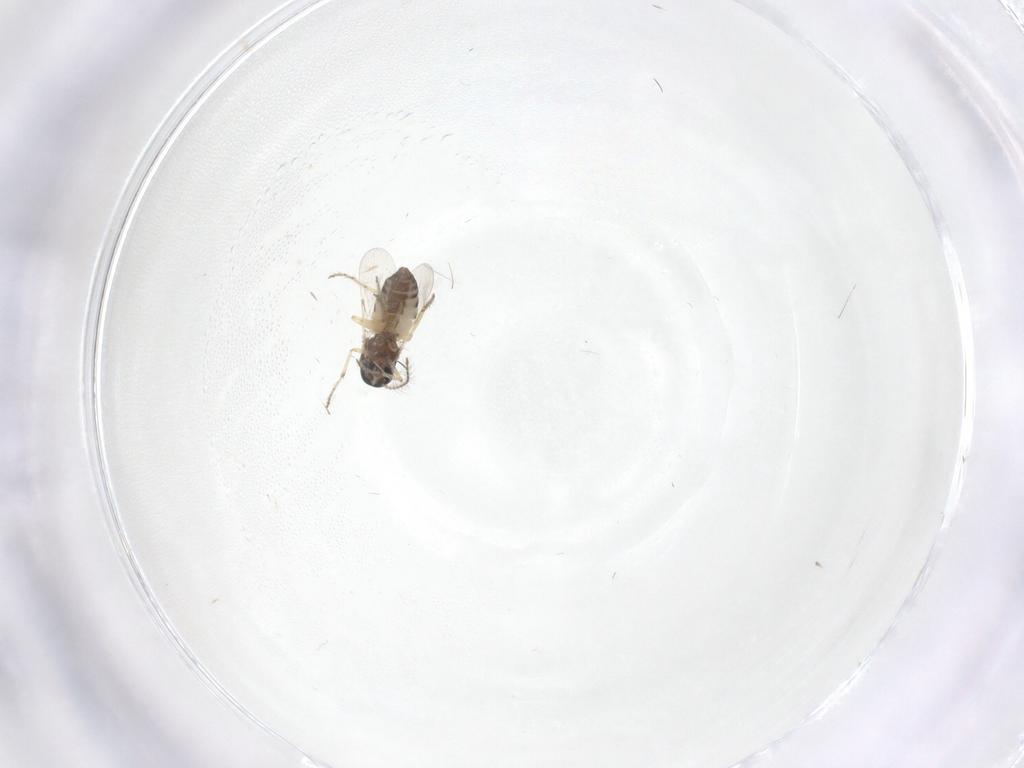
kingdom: Animalia
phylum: Arthropoda
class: Insecta
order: Diptera
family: Ceratopogonidae
